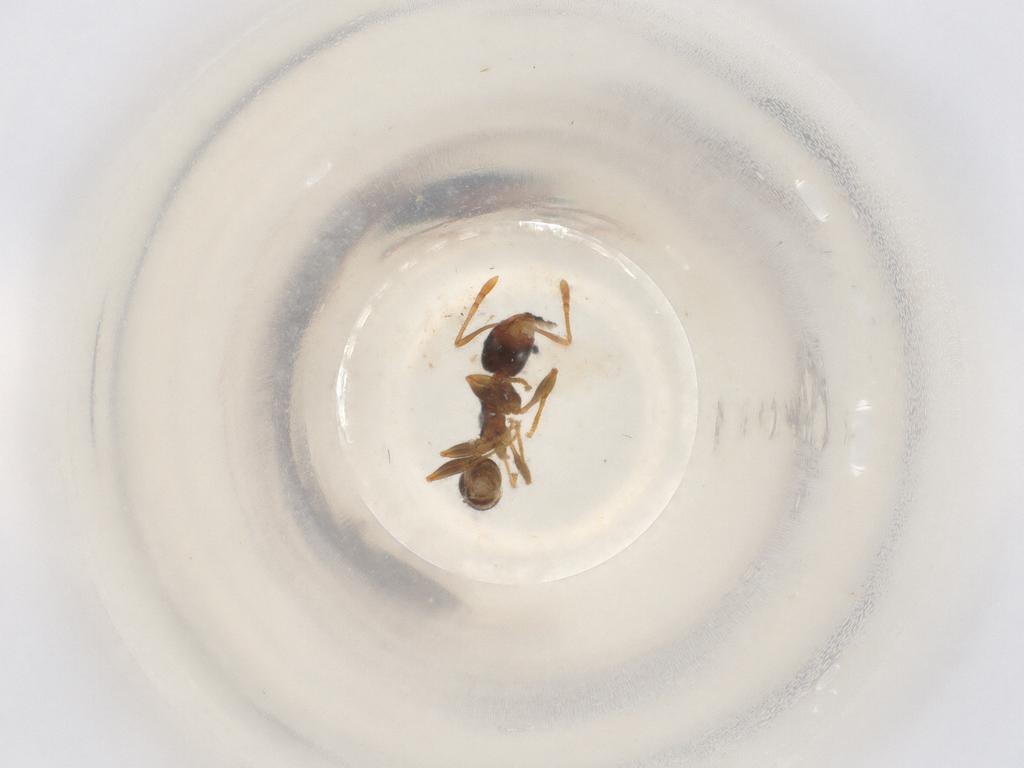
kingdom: Animalia
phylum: Arthropoda
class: Insecta
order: Hymenoptera
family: Formicidae
